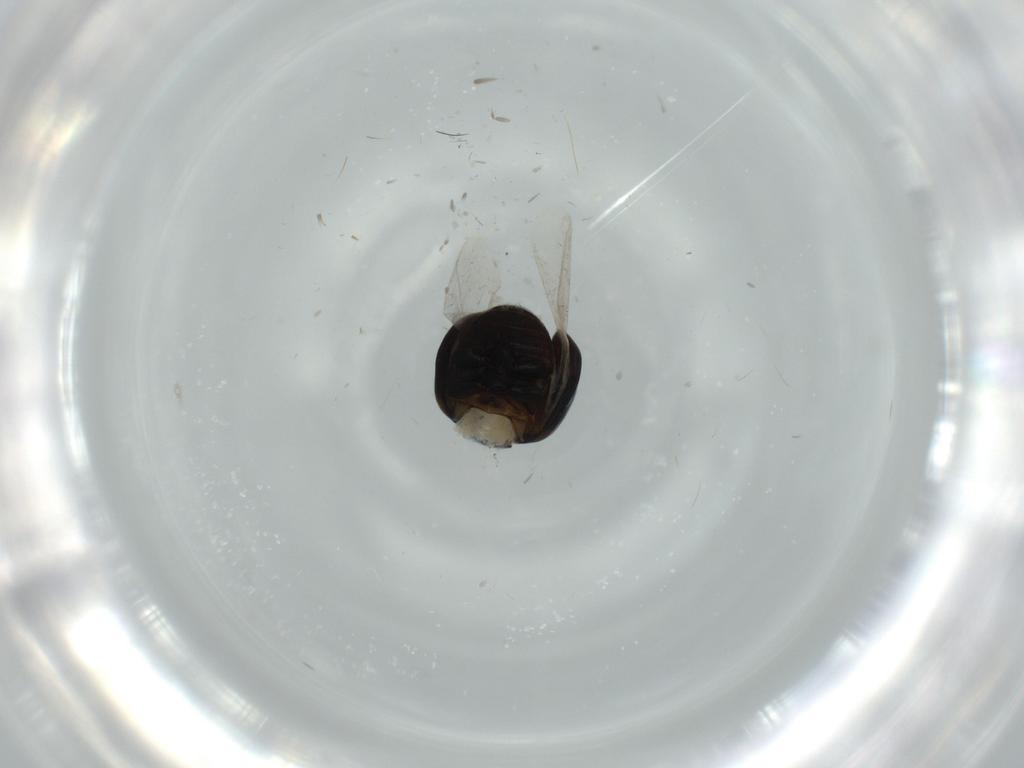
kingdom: Animalia
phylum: Arthropoda
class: Insecta
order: Coleoptera
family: Cybocephalidae
